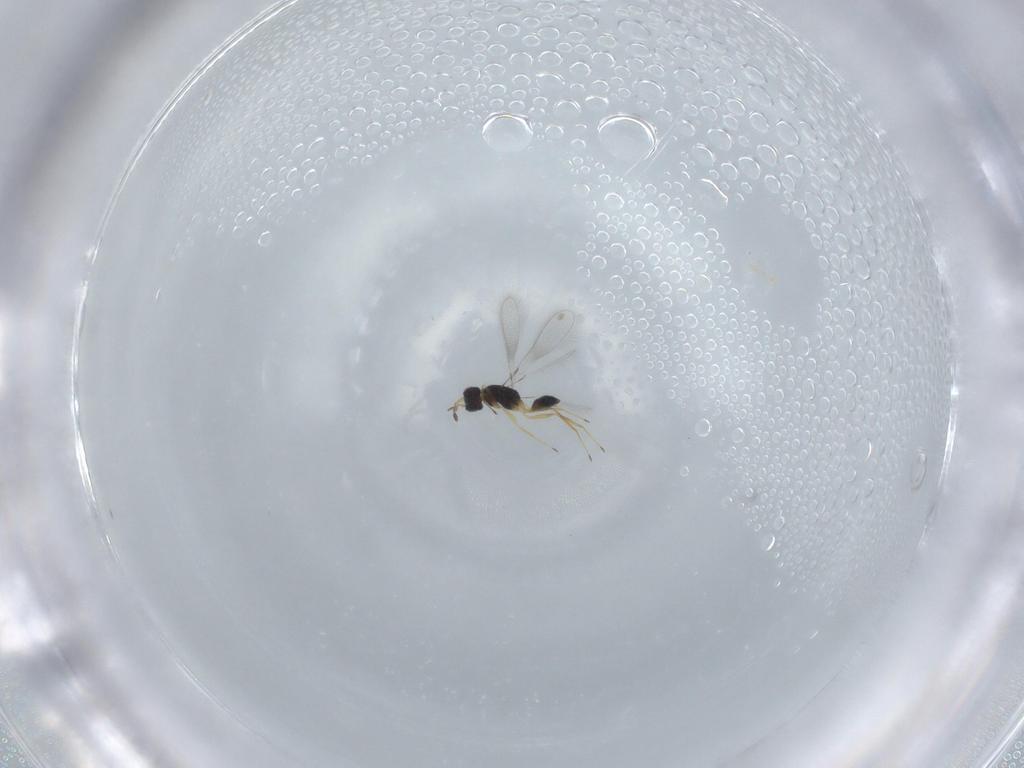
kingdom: Animalia
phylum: Arthropoda
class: Insecta
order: Hymenoptera
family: Mymaridae
